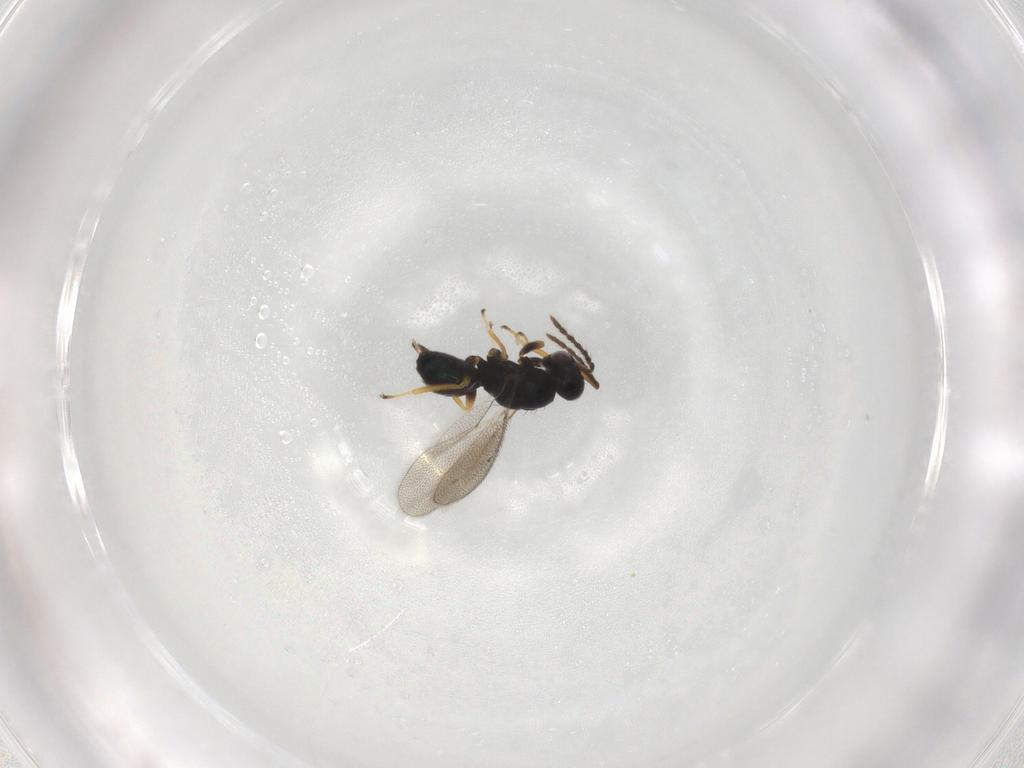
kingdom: Animalia
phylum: Arthropoda
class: Insecta
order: Hymenoptera
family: Eulophidae
